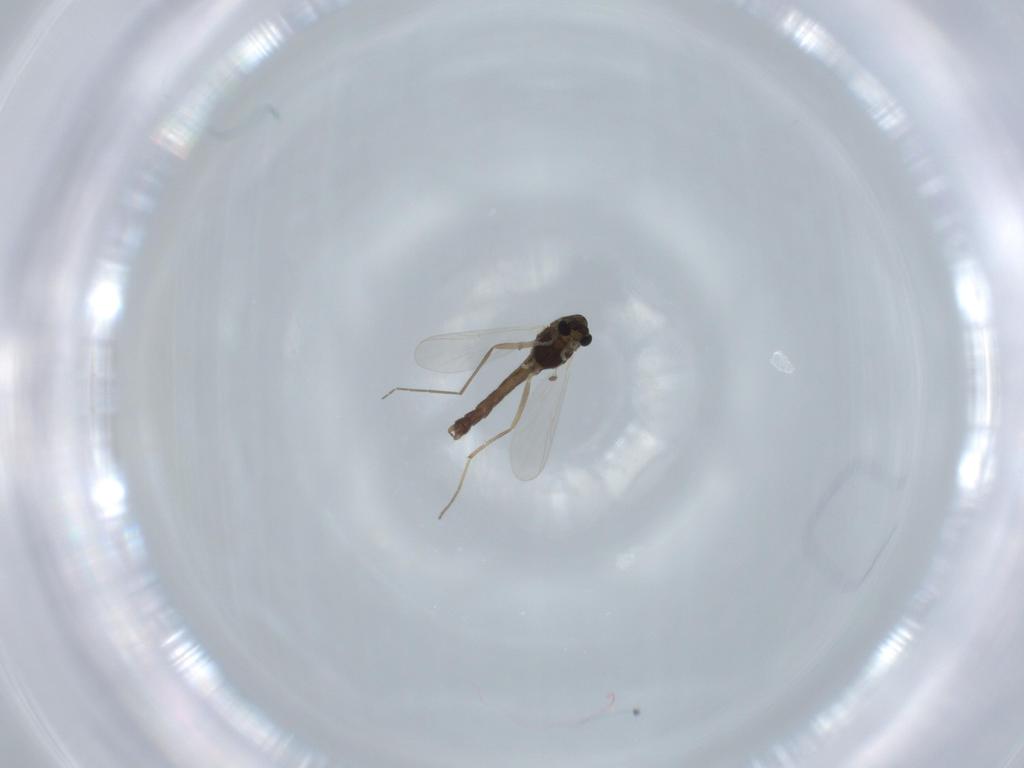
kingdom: Animalia
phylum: Arthropoda
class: Insecta
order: Diptera
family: Chironomidae
